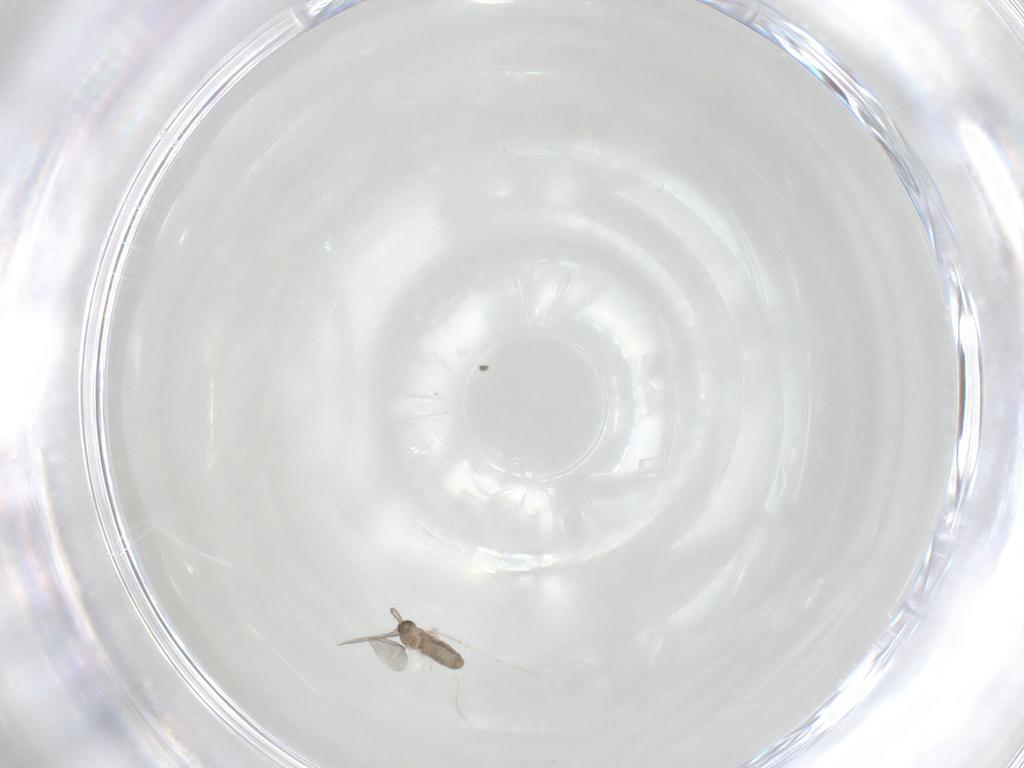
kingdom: Animalia
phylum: Arthropoda
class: Insecta
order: Diptera
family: Cecidomyiidae
